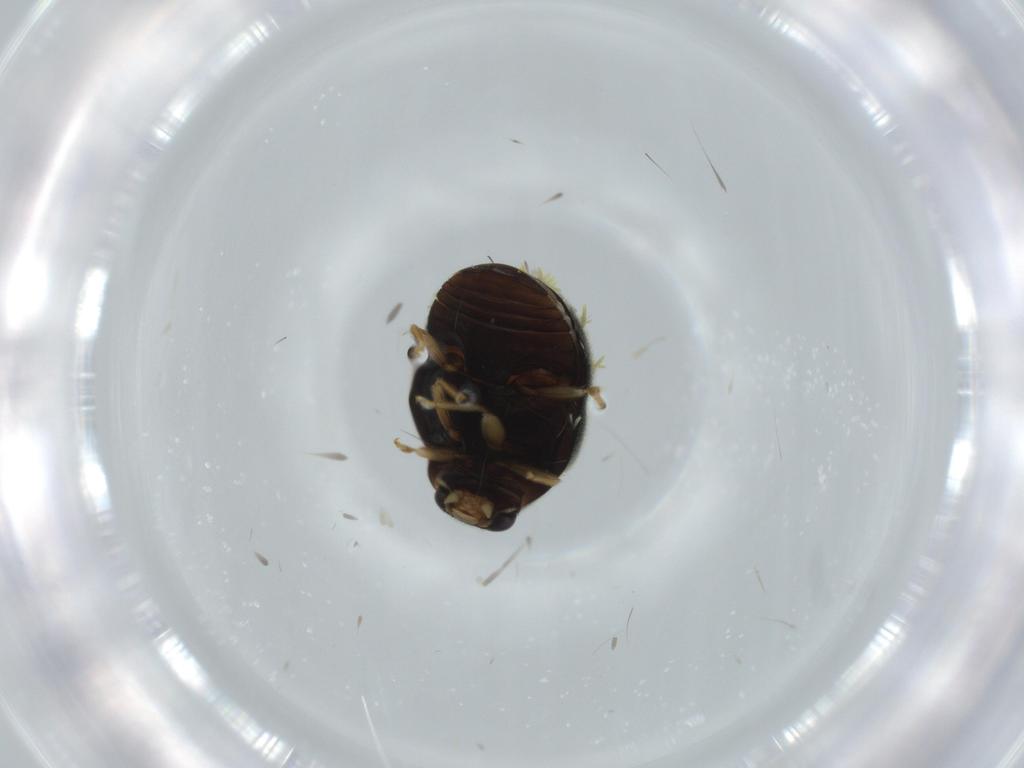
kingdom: Animalia
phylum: Arthropoda
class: Insecta
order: Coleoptera
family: Coccinellidae
